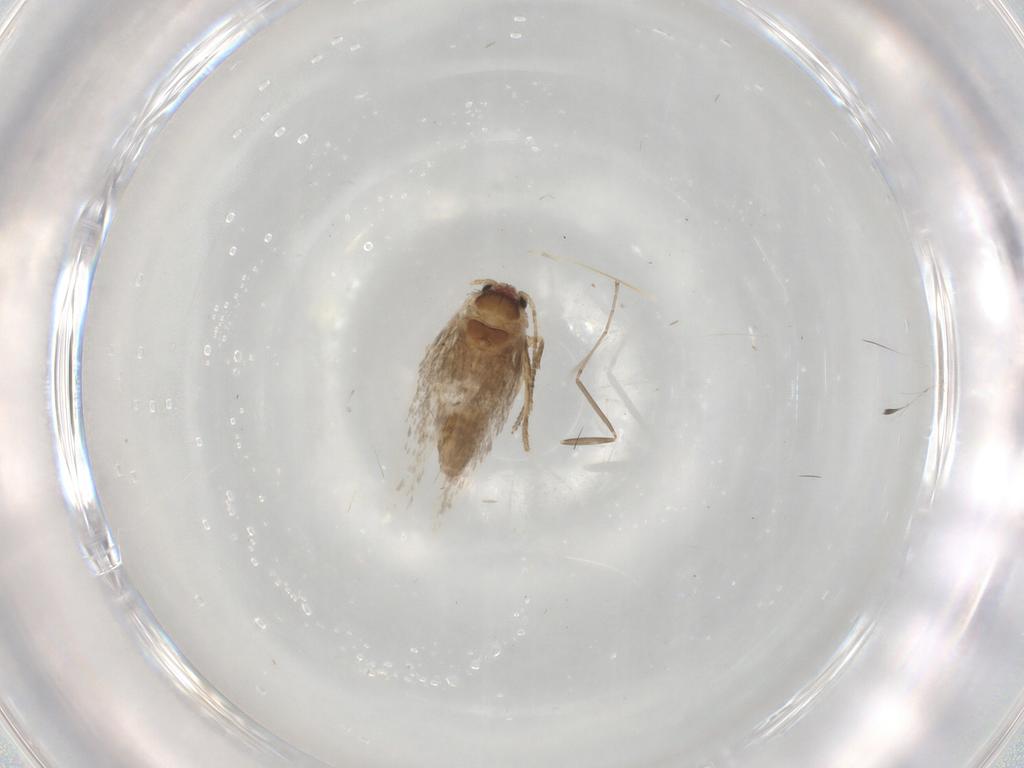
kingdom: Animalia
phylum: Arthropoda
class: Insecta
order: Lepidoptera
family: Nepticulidae
